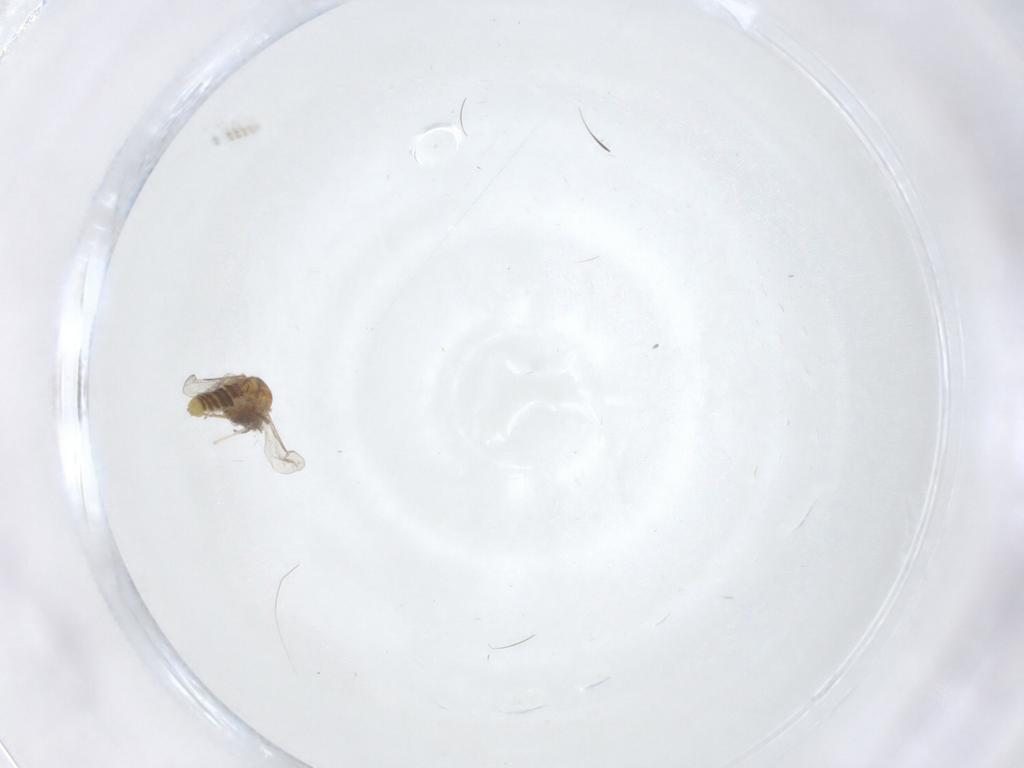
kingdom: Animalia
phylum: Arthropoda
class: Insecta
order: Diptera
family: Cecidomyiidae
